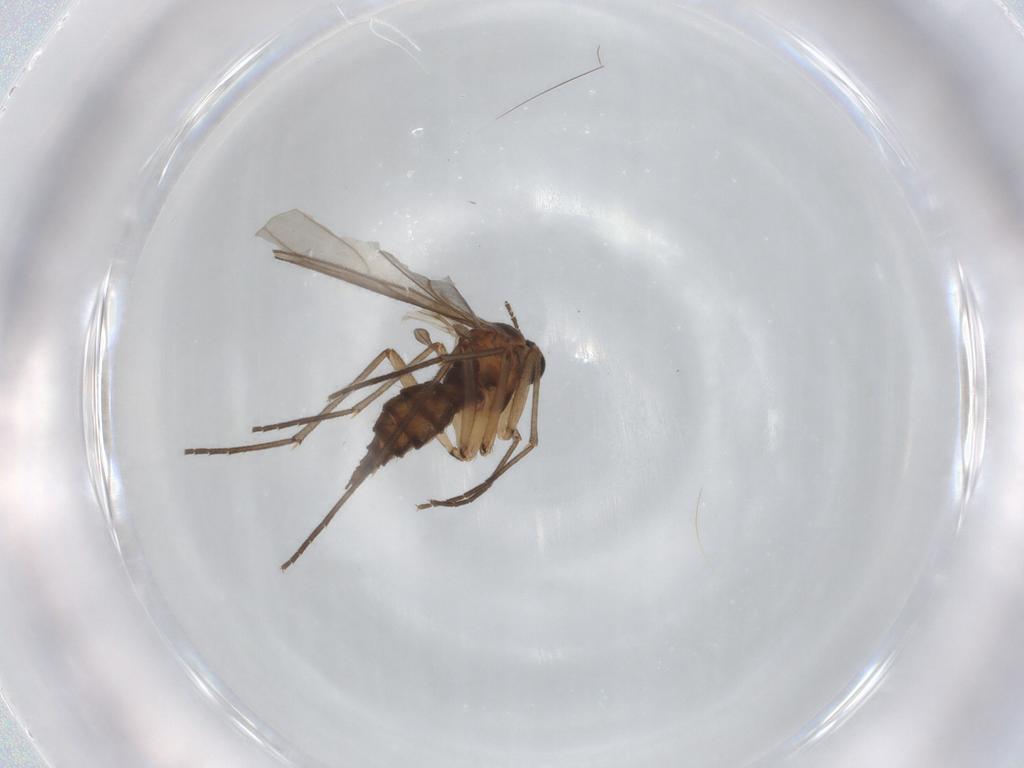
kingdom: Animalia
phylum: Arthropoda
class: Insecta
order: Diptera
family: Sciaridae
